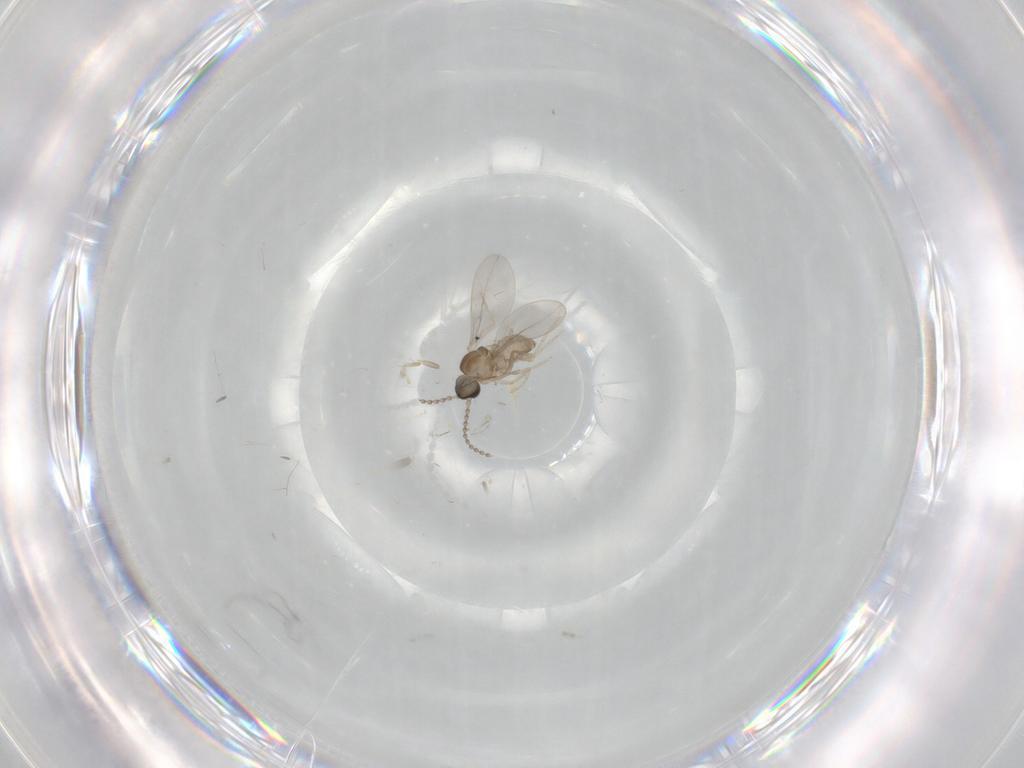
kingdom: Animalia
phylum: Arthropoda
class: Insecta
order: Diptera
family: Cecidomyiidae
